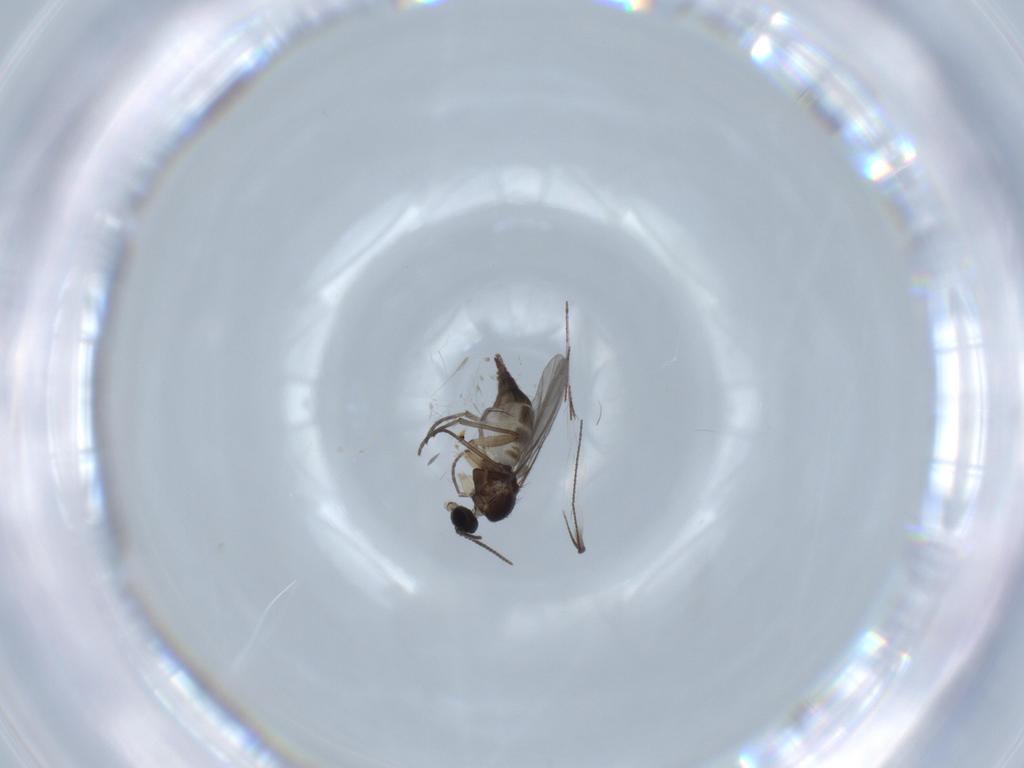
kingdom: Animalia
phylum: Arthropoda
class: Insecta
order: Diptera
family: Sciaridae
